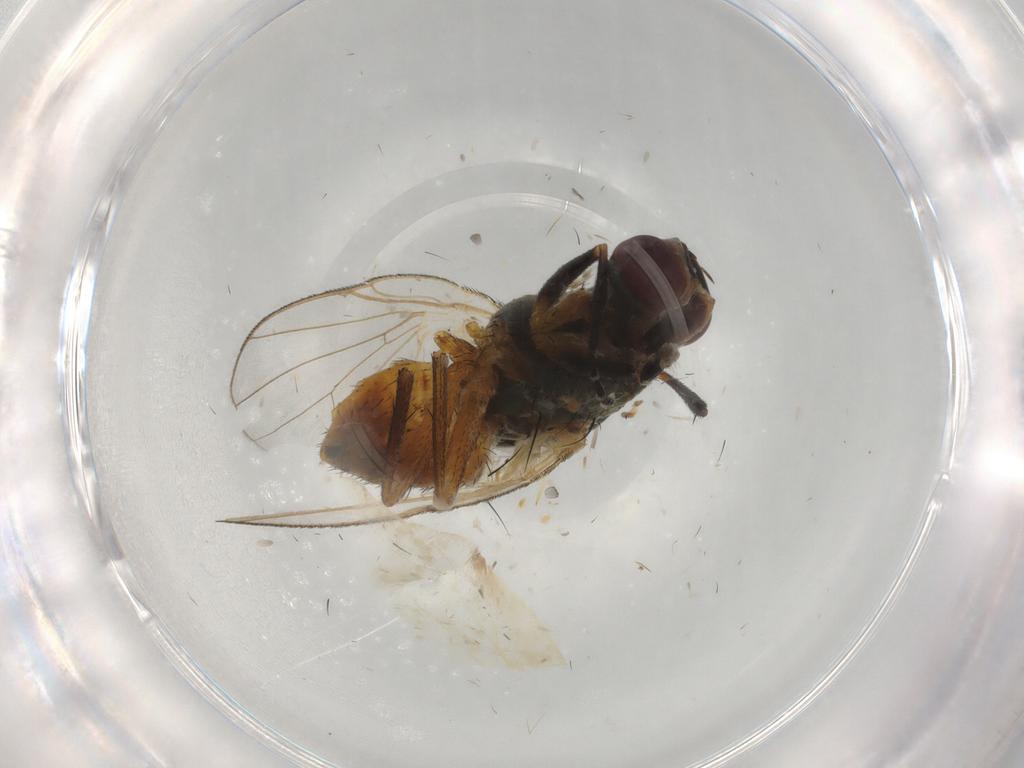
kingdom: Animalia
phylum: Arthropoda
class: Insecta
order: Diptera
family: Muscidae
